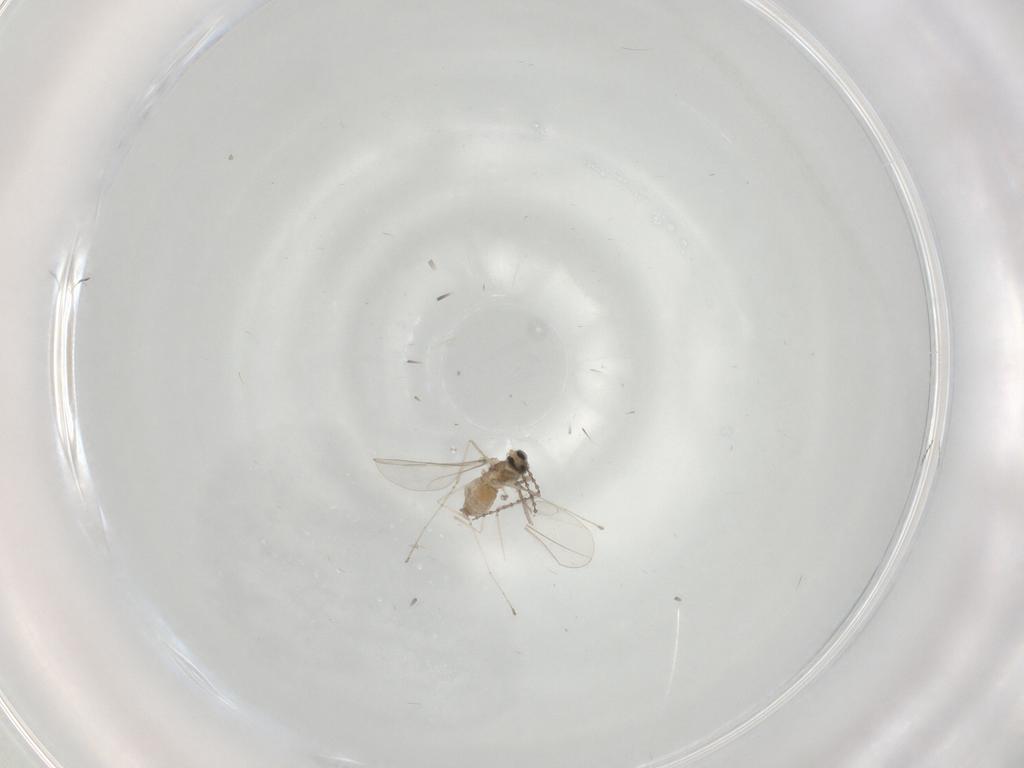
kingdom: Animalia
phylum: Arthropoda
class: Insecta
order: Diptera
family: Cecidomyiidae
